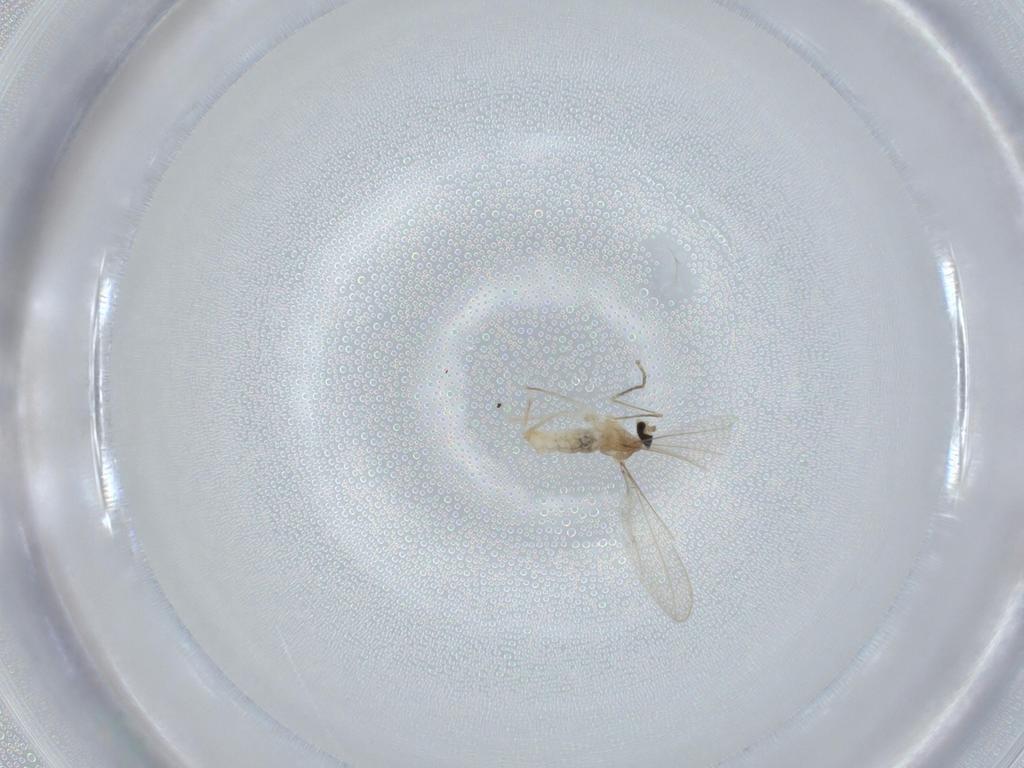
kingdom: Animalia
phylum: Arthropoda
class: Insecta
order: Diptera
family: Cecidomyiidae
